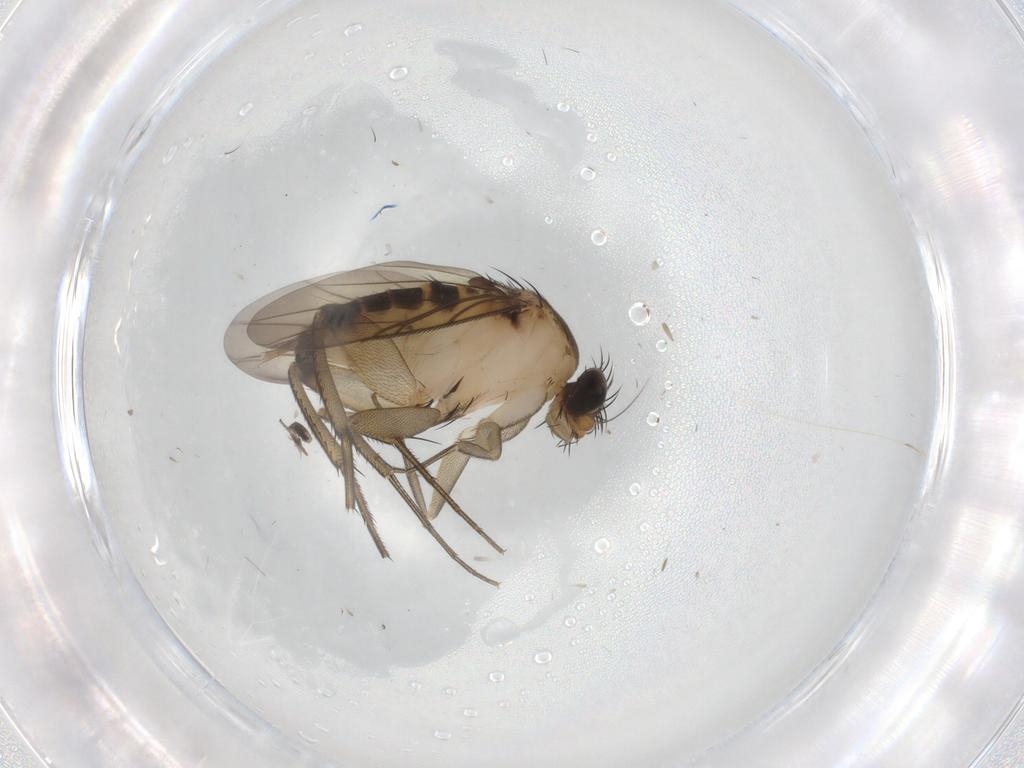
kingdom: Animalia
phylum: Arthropoda
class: Insecta
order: Diptera
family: Phoridae
